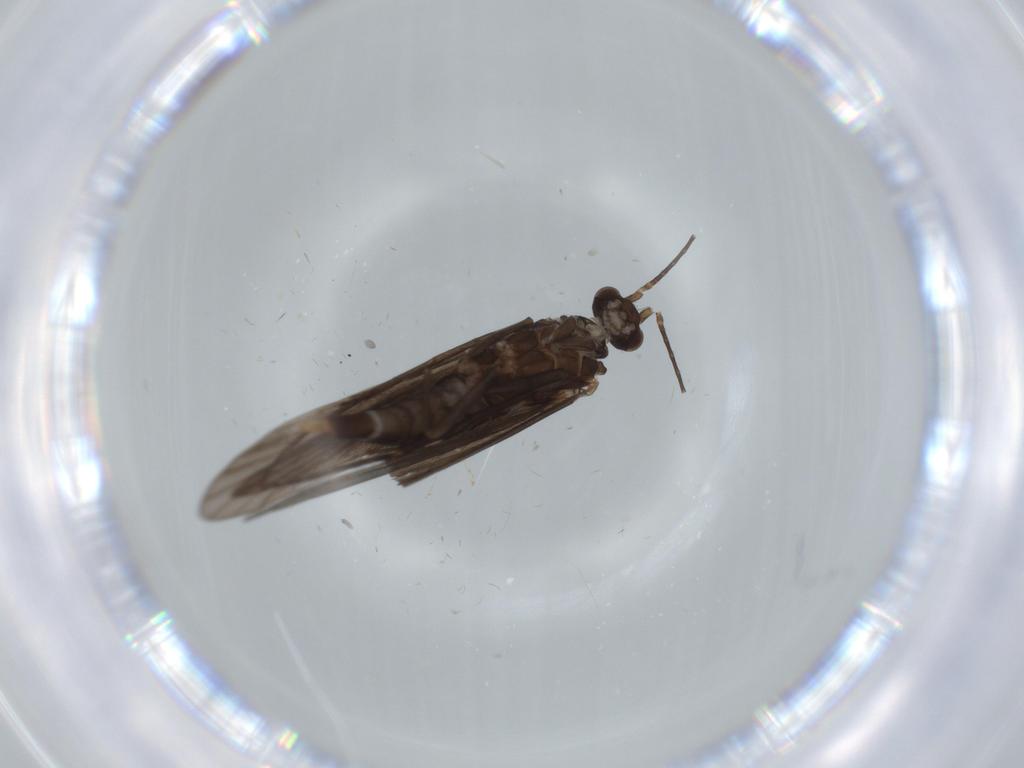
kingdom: Animalia
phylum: Arthropoda
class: Insecta
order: Trichoptera
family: Xiphocentronidae
